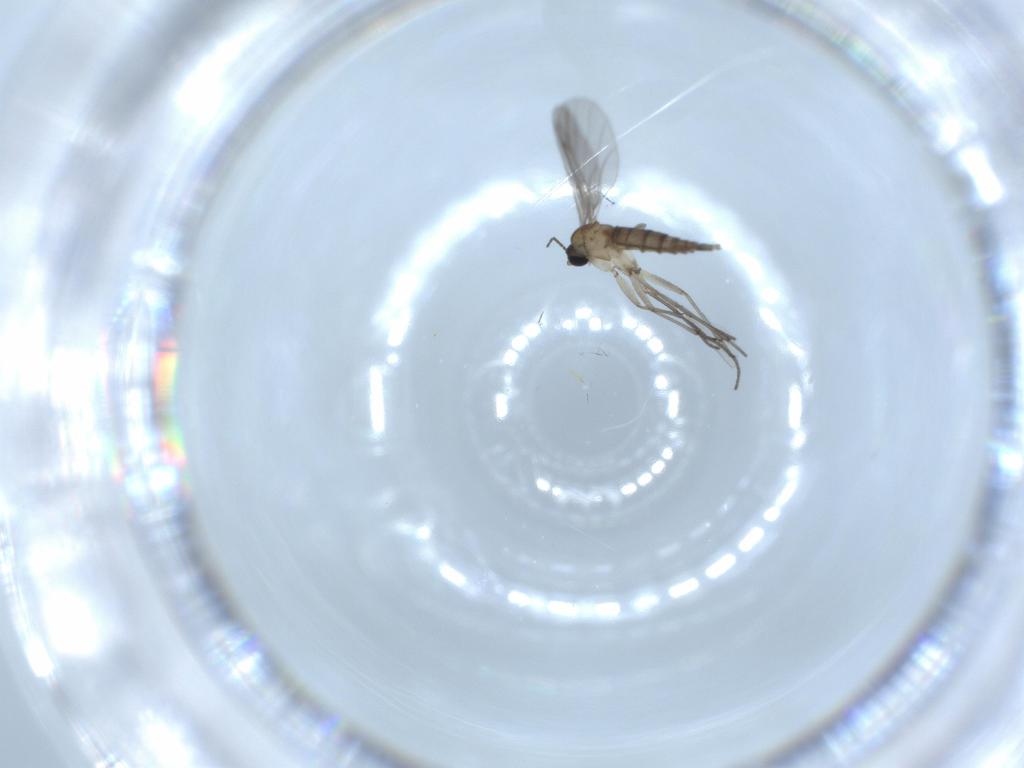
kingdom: Animalia
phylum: Arthropoda
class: Insecta
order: Diptera
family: Sciaridae
